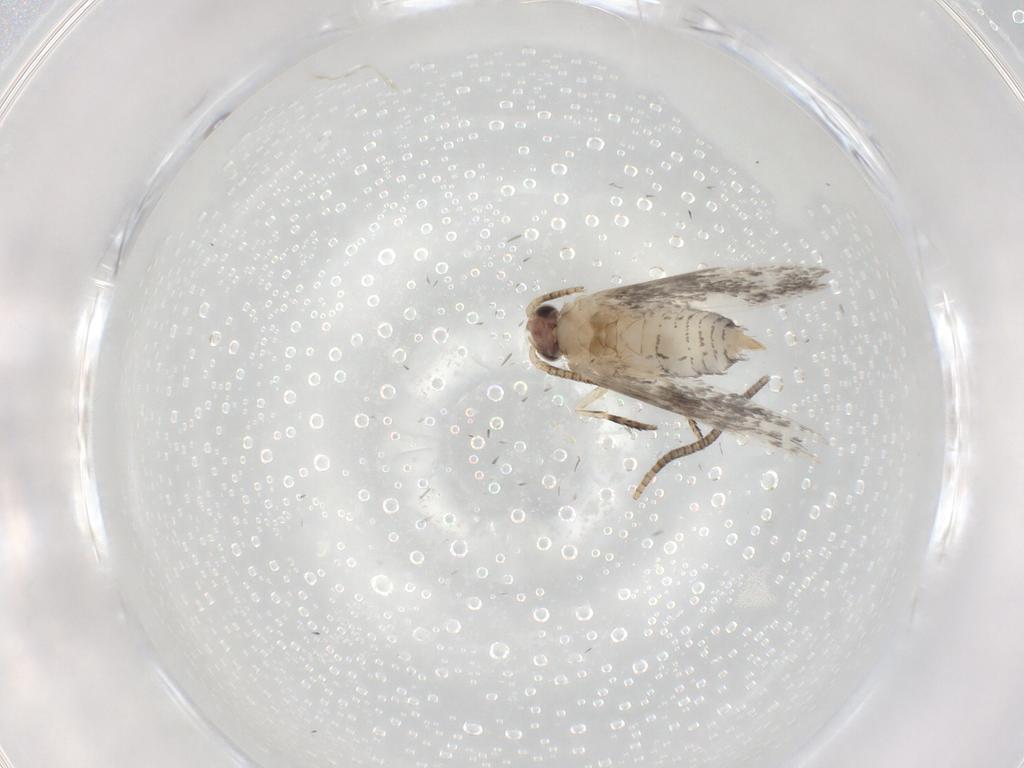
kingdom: Animalia
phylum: Arthropoda
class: Insecta
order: Lepidoptera
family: Tineidae
